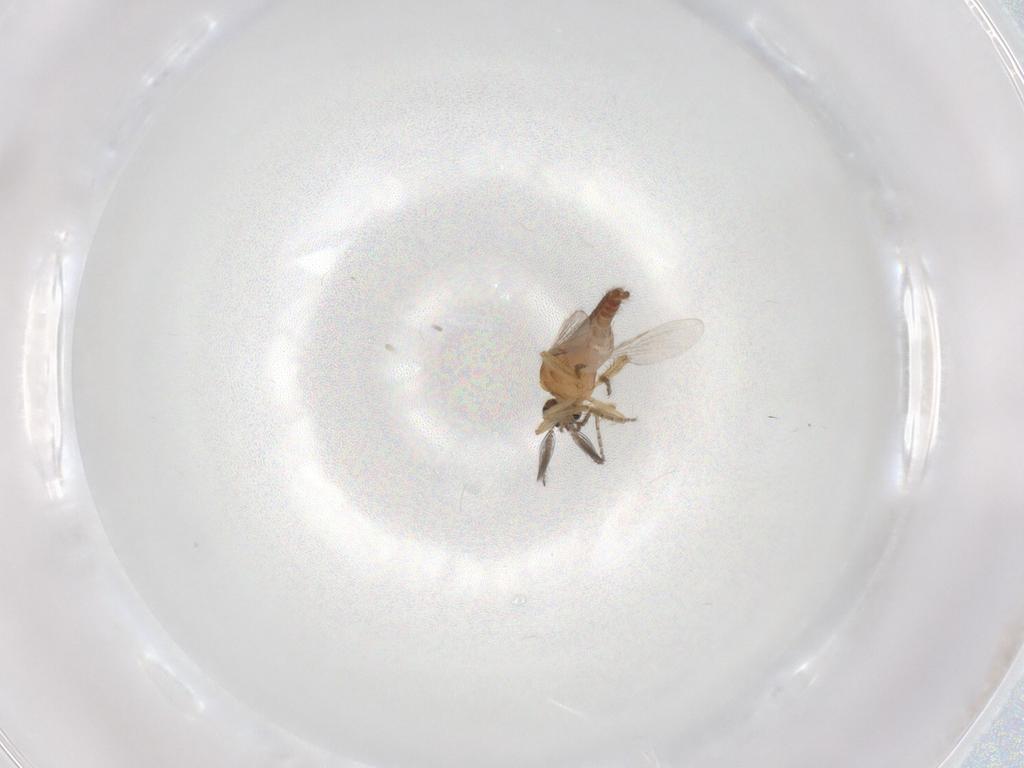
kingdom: Animalia
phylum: Arthropoda
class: Insecta
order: Diptera
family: Ceratopogonidae
